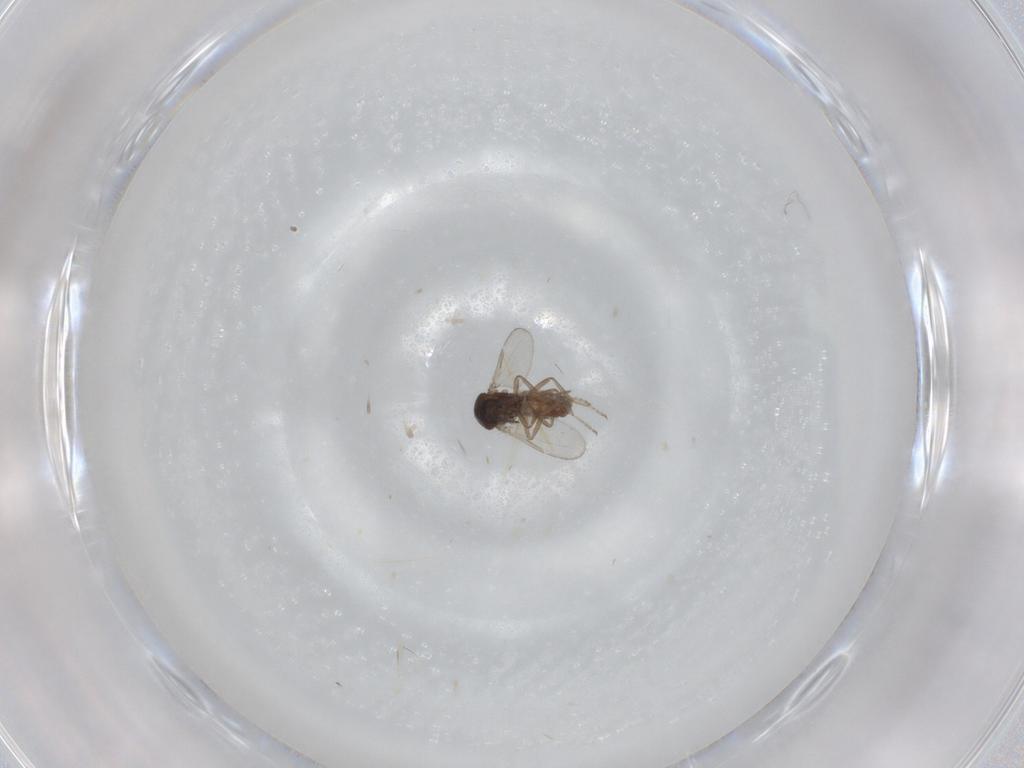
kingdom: Animalia
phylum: Arthropoda
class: Insecta
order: Diptera
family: Ceratopogonidae
